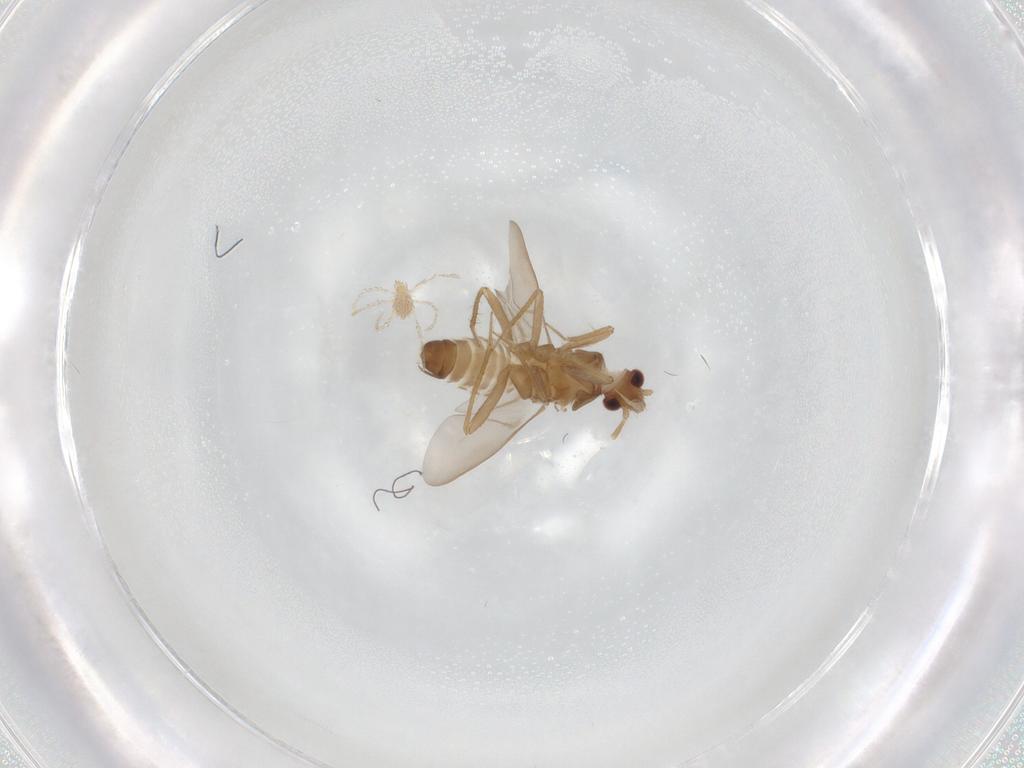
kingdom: Animalia
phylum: Arthropoda
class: Insecta
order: Hemiptera
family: Ceratocombidae
